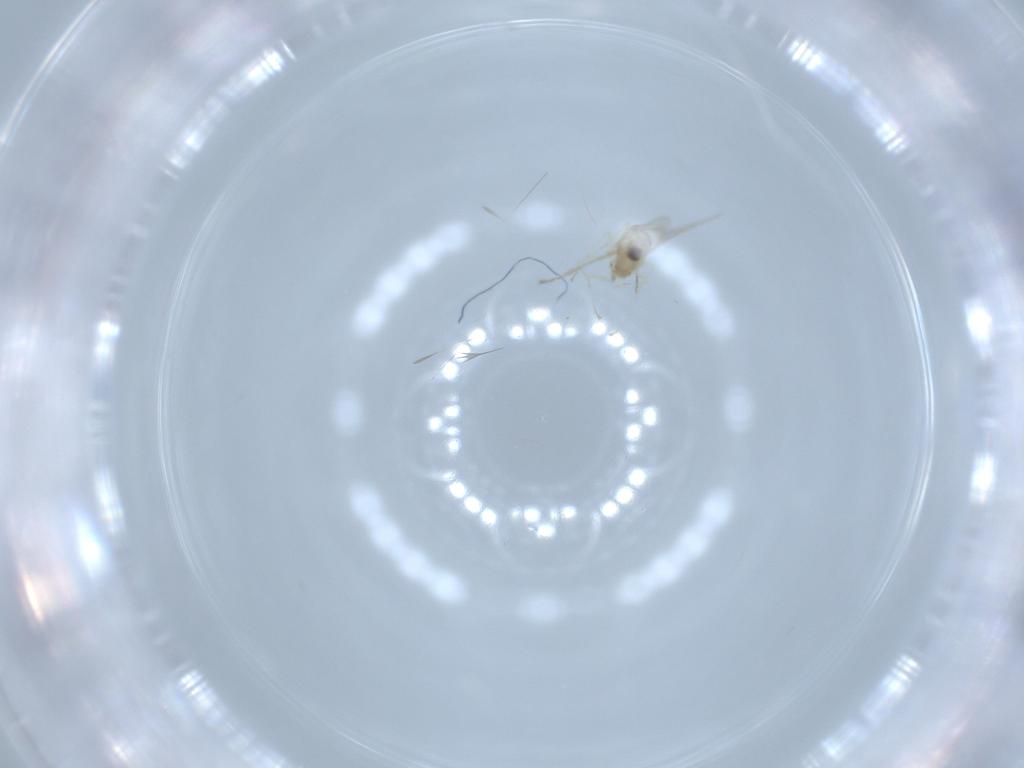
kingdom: Animalia
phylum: Arthropoda
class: Insecta
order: Diptera
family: Cecidomyiidae
